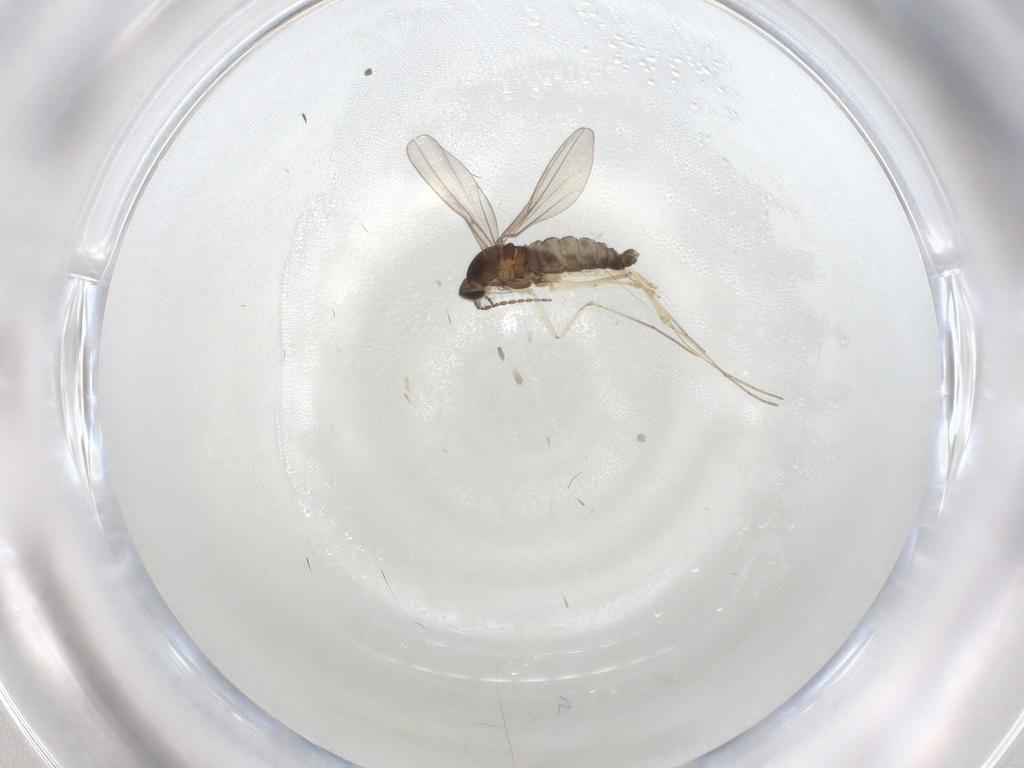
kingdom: Animalia
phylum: Arthropoda
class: Insecta
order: Diptera
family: Cecidomyiidae
